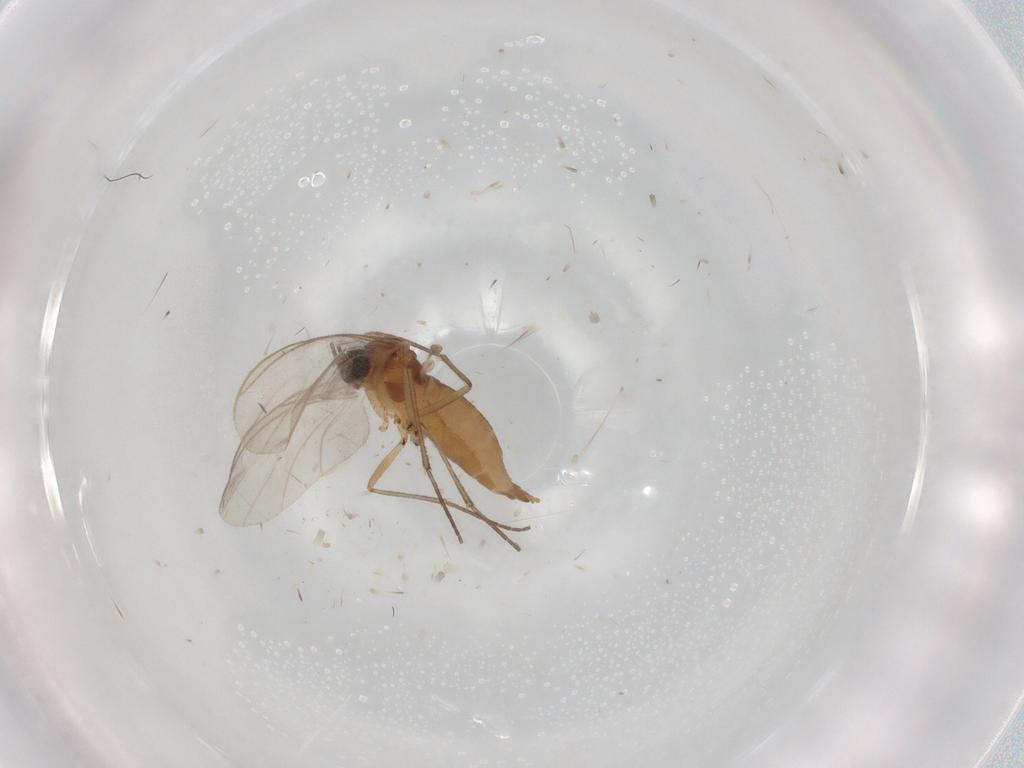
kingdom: Animalia
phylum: Arthropoda
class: Insecta
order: Diptera
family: Sciaridae
